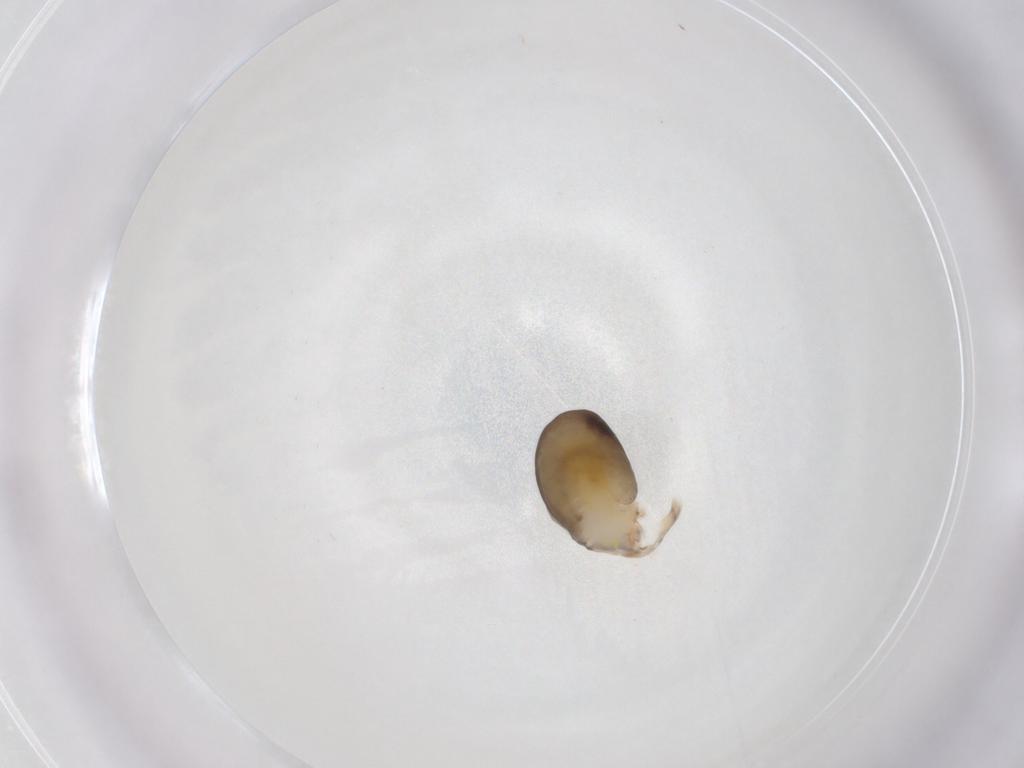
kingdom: Animalia
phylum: Arthropoda
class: Insecta
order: Hymenoptera
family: Dryinidae
